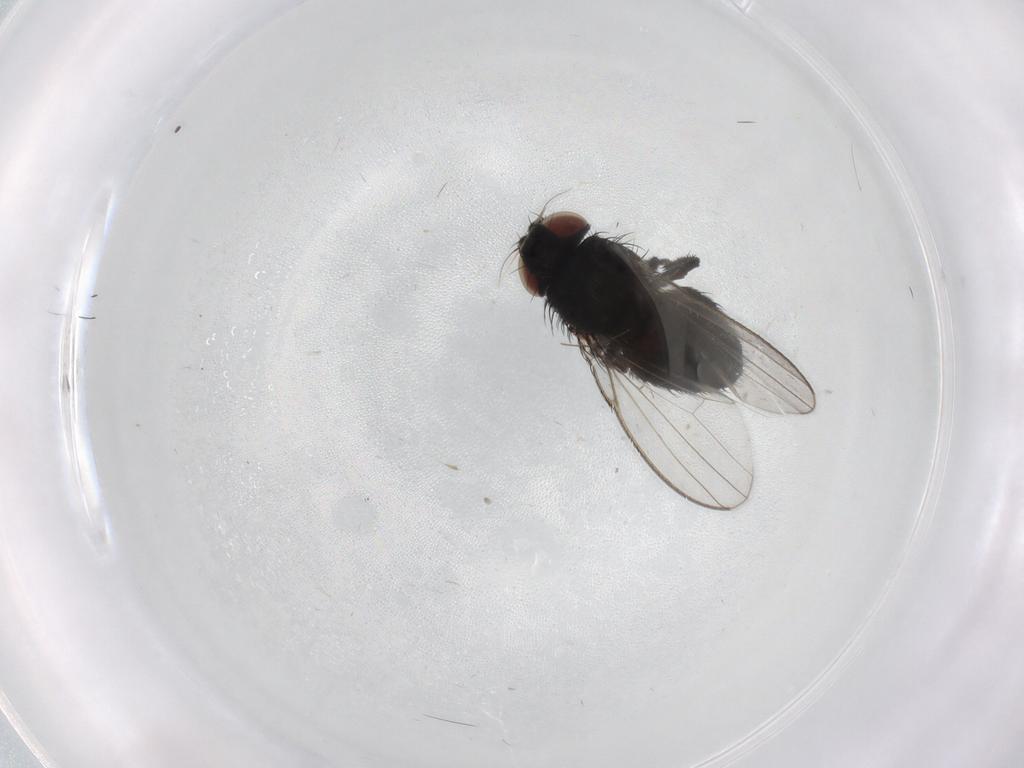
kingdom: Animalia
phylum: Arthropoda
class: Insecta
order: Diptera
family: Milichiidae
